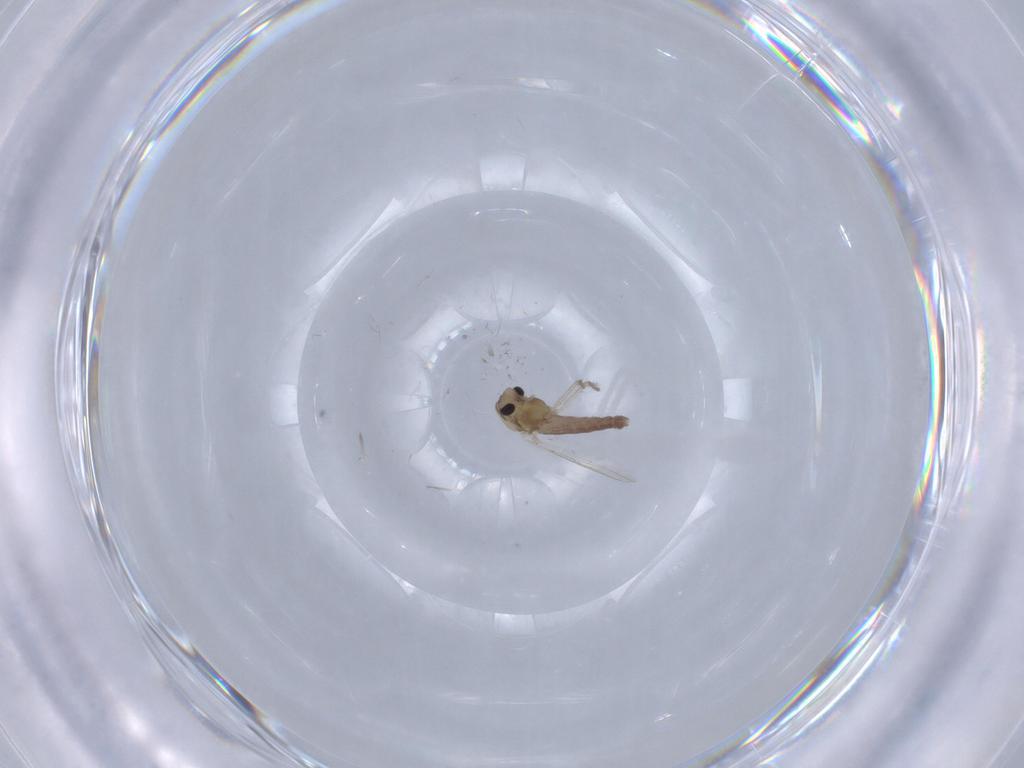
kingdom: Animalia
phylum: Arthropoda
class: Insecta
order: Diptera
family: Chironomidae
